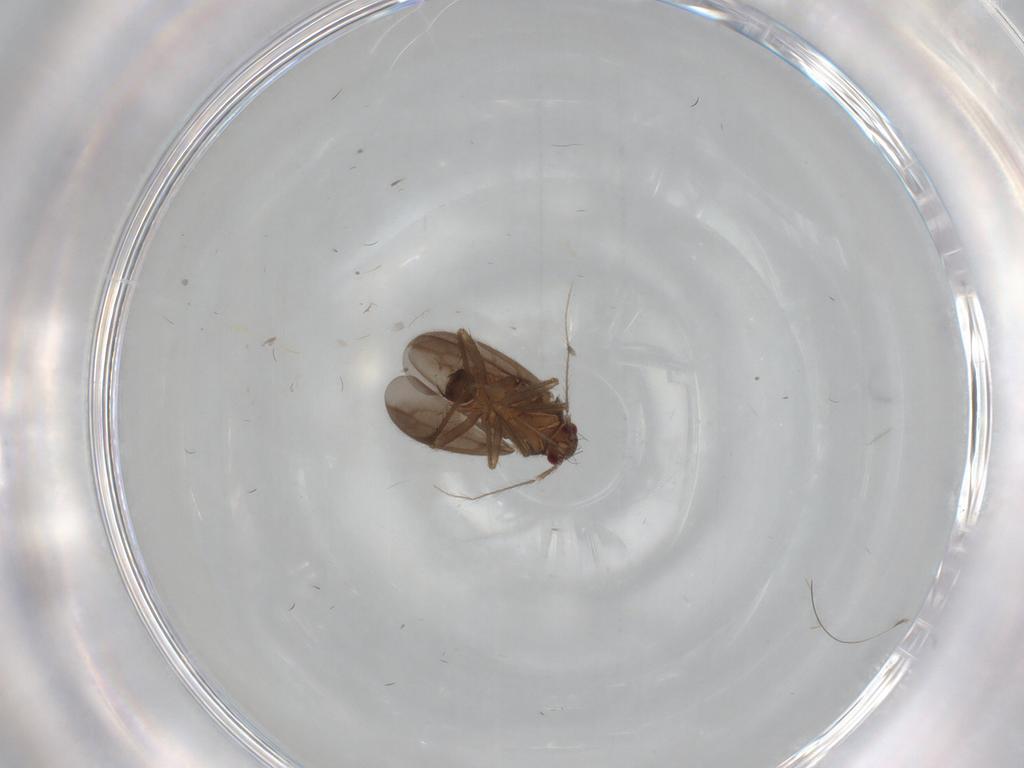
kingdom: Animalia
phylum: Arthropoda
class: Insecta
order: Hemiptera
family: Ceratocombidae
